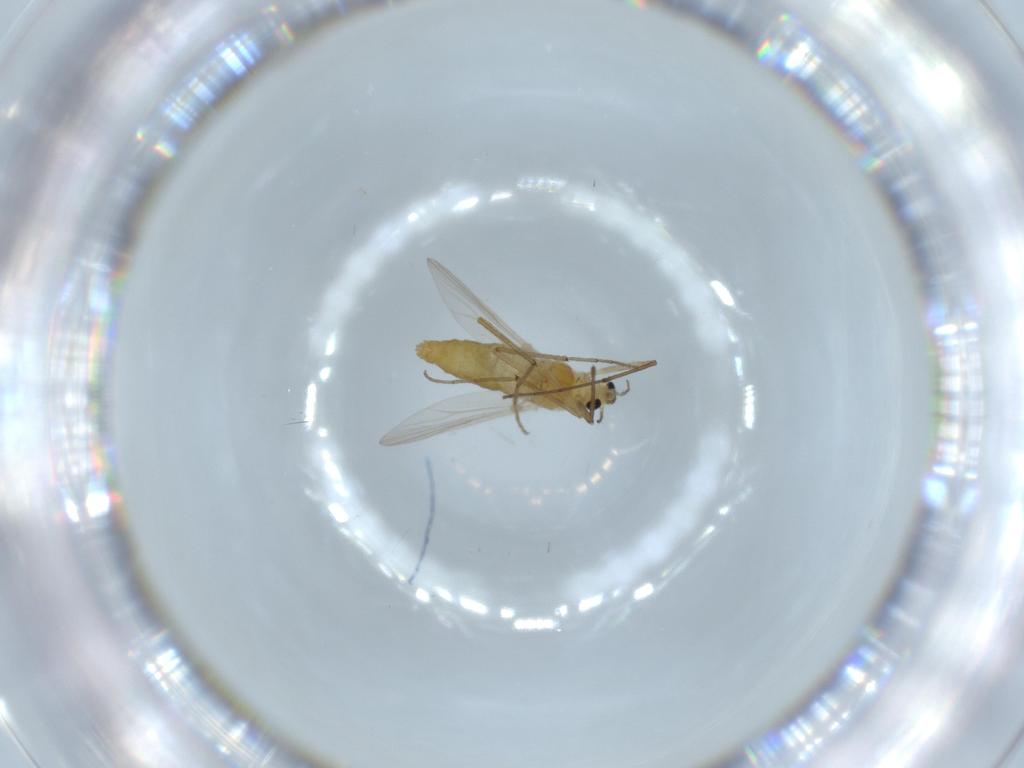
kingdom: Animalia
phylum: Arthropoda
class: Insecta
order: Diptera
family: Chironomidae
